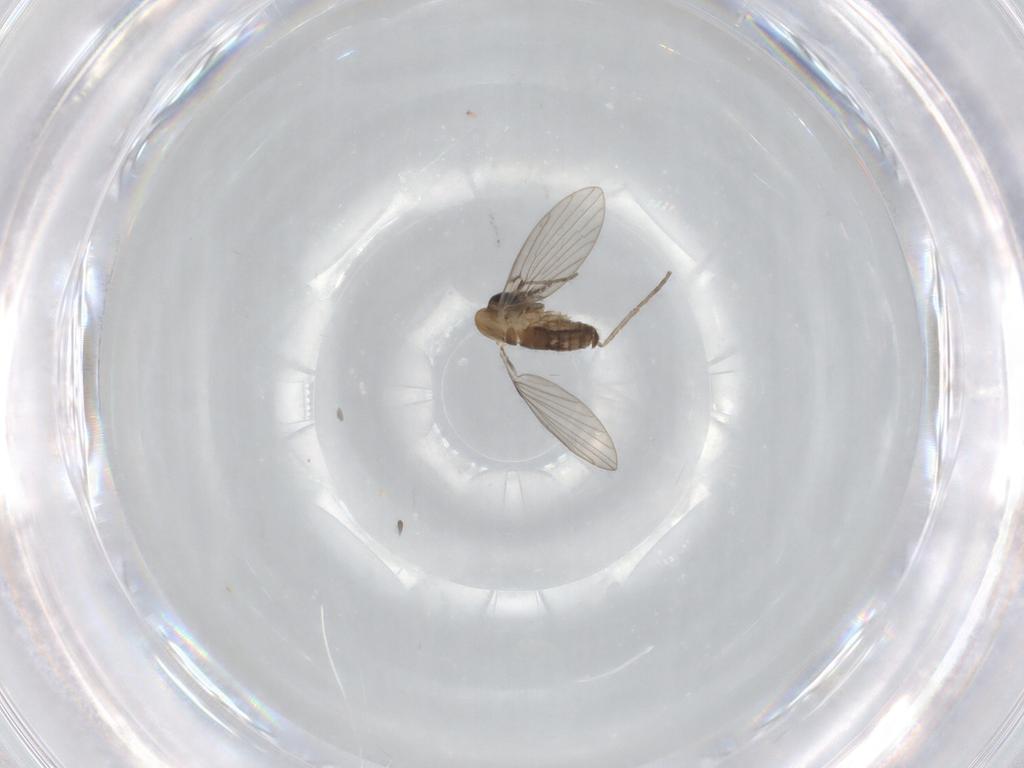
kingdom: Animalia
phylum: Arthropoda
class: Insecta
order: Diptera
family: Psychodidae
